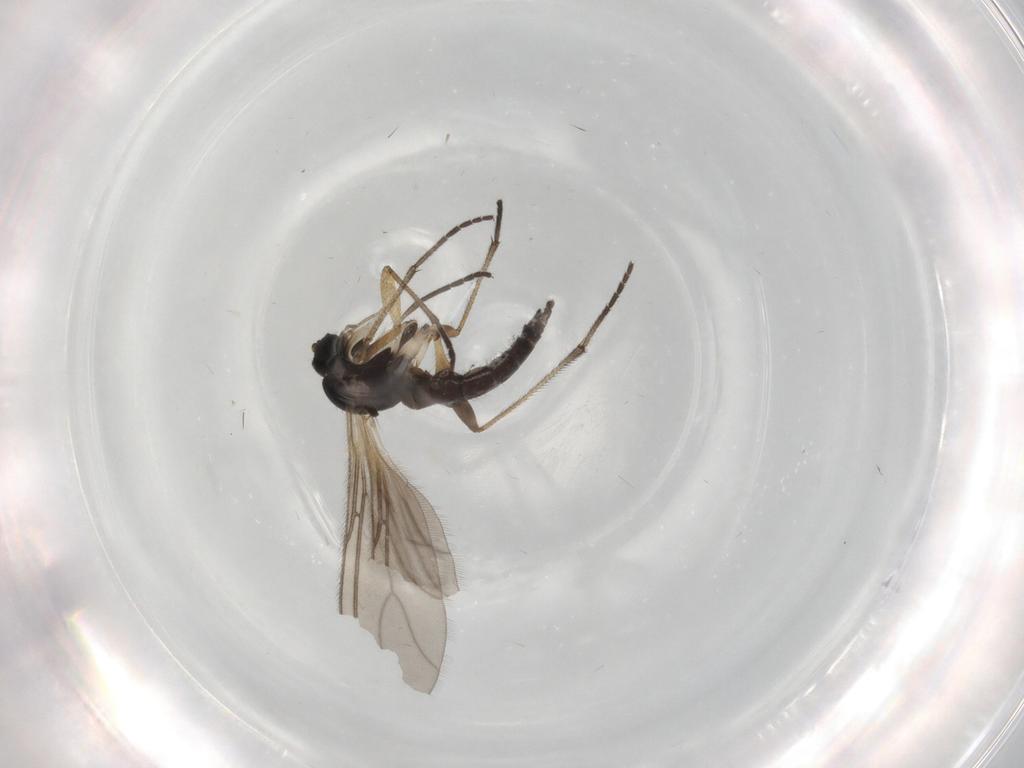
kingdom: Animalia
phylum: Arthropoda
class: Insecta
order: Diptera
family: Sciaridae
